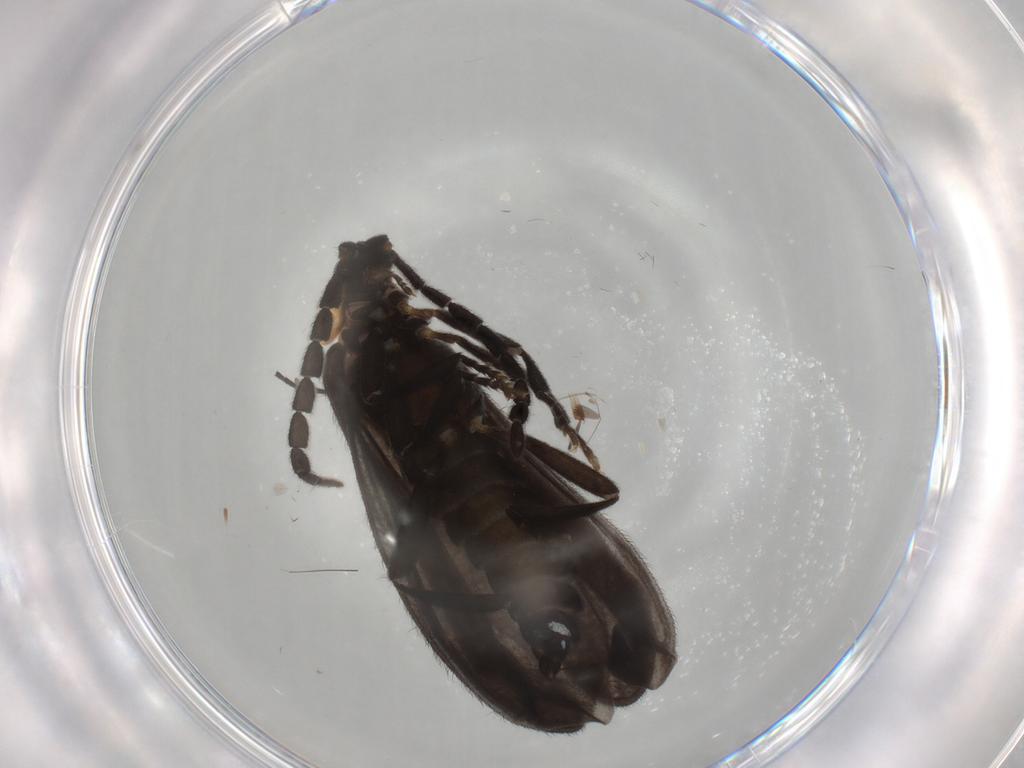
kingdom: Animalia
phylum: Arthropoda
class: Insecta
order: Coleoptera
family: Lycidae
